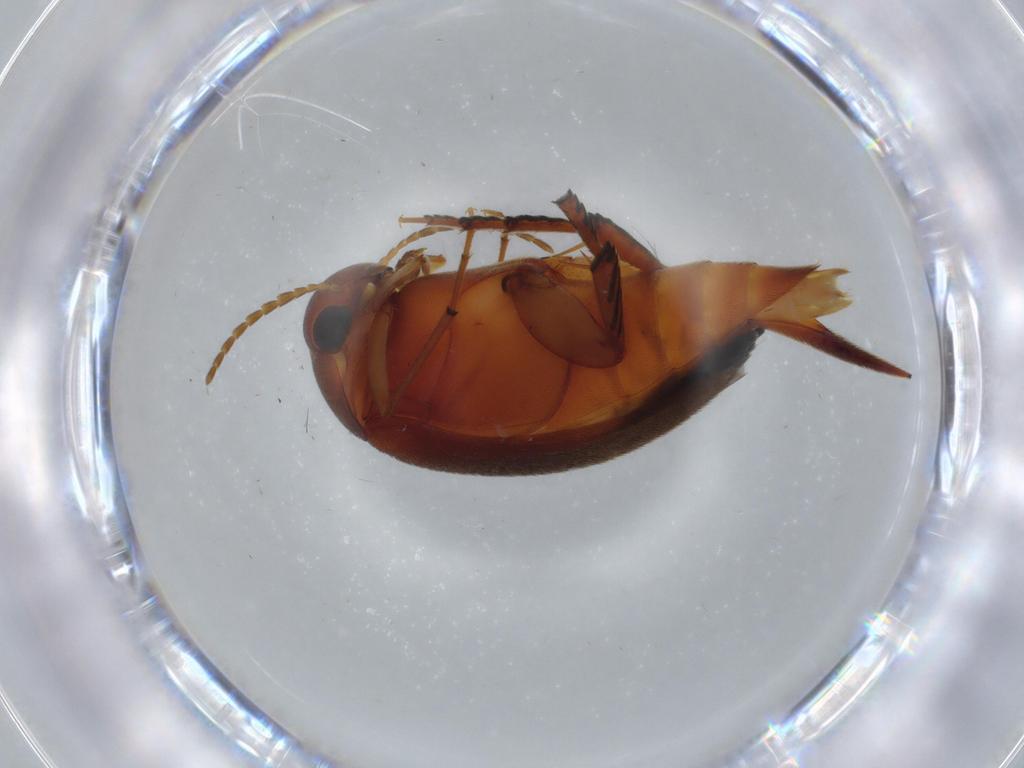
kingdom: Animalia
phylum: Arthropoda
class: Insecta
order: Coleoptera
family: Mordellidae
